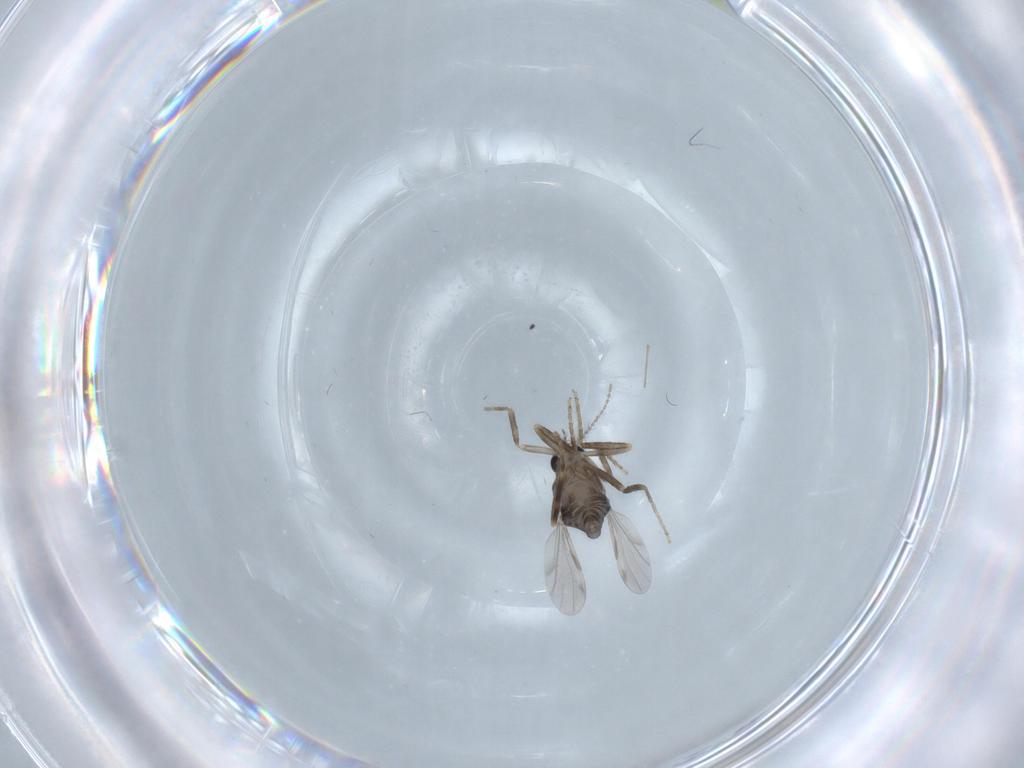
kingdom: Animalia
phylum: Arthropoda
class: Insecta
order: Diptera
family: Ceratopogonidae
